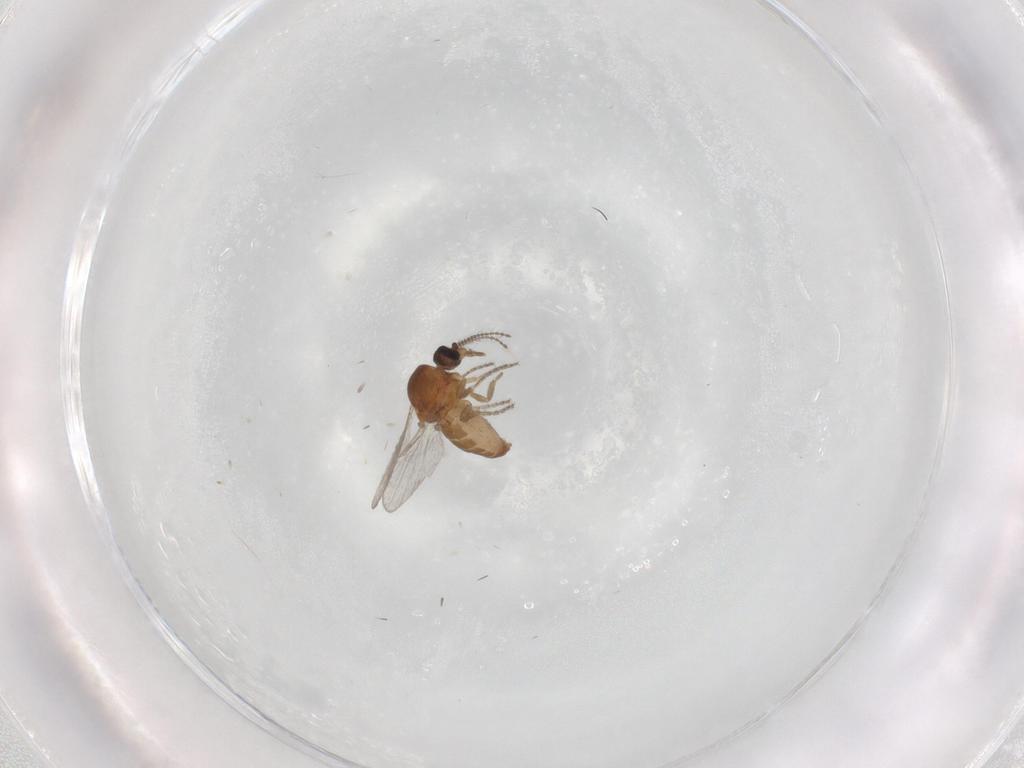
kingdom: Animalia
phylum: Arthropoda
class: Insecta
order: Diptera
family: Ceratopogonidae
